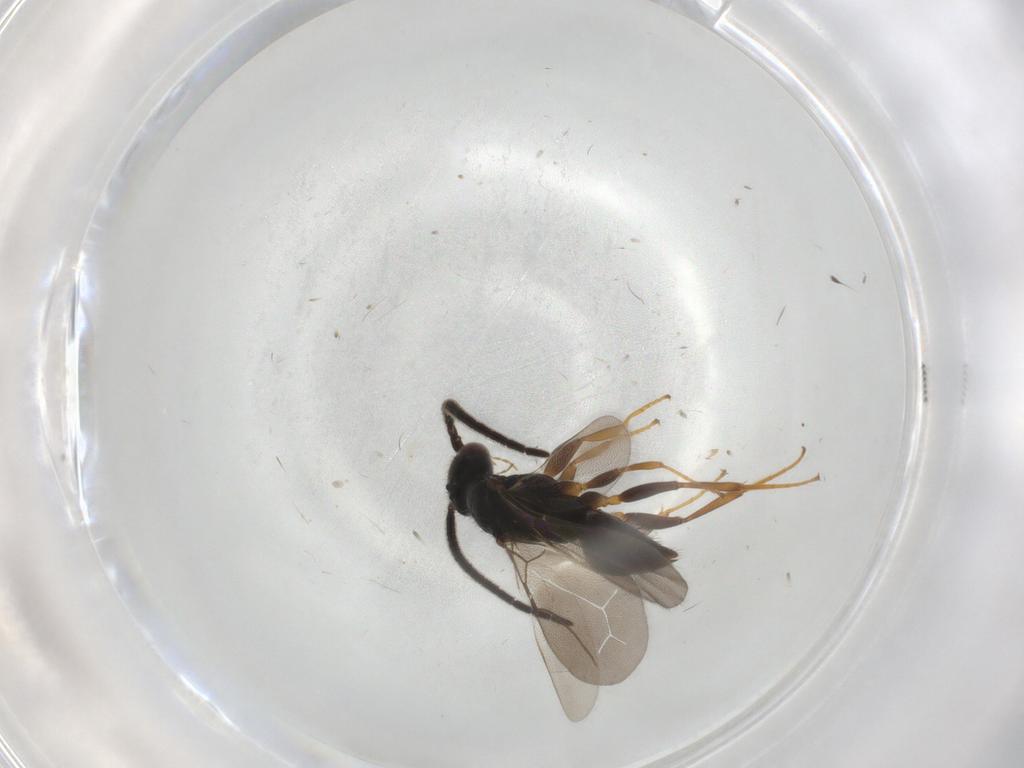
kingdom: Animalia
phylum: Arthropoda
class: Insecta
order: Hymenoptera
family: Bethylidae
